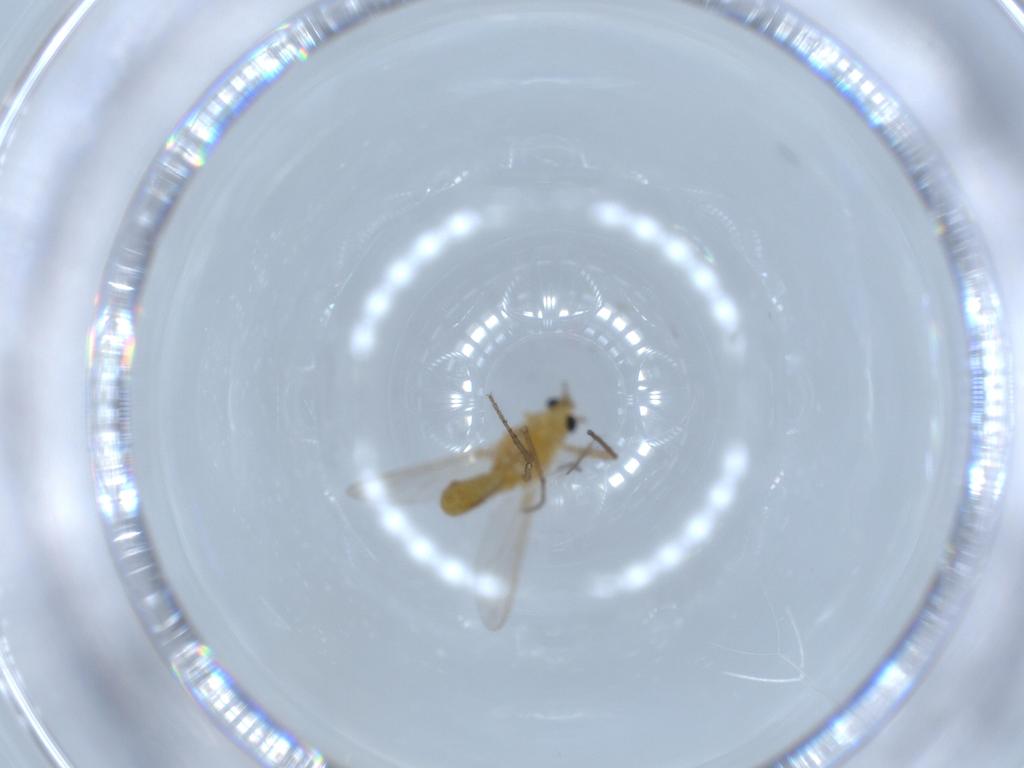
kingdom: Animalia
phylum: Arthropoda
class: Insecta
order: Diptera
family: Chironomidae
